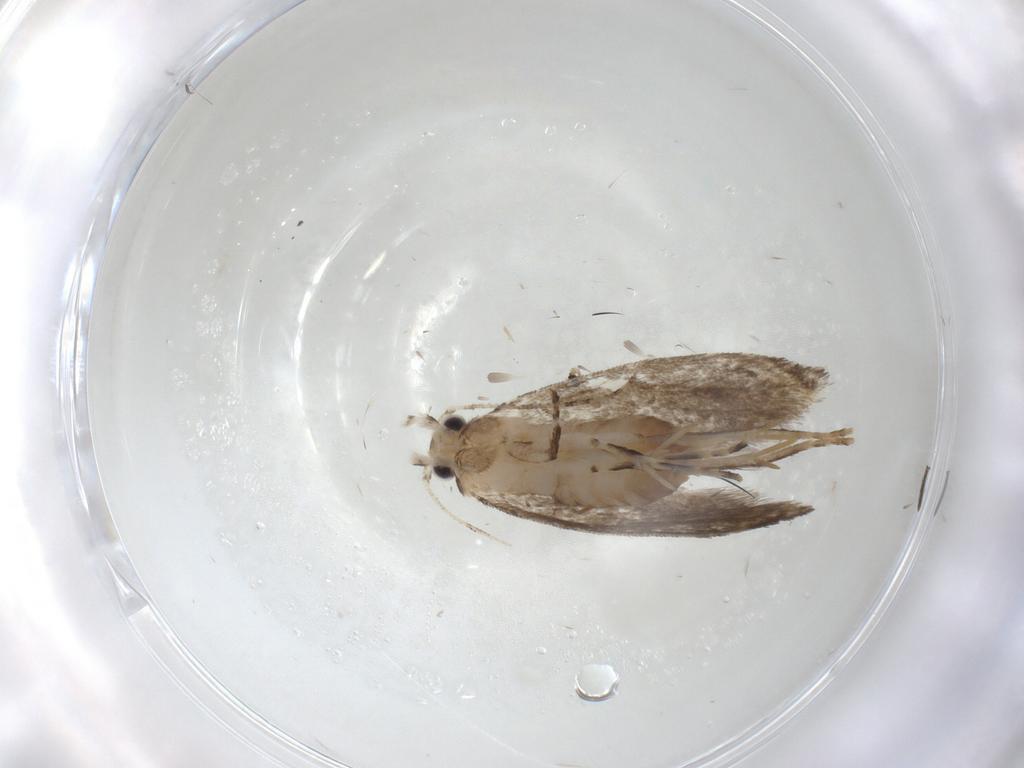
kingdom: Animalia
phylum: Arthropoda
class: Insecta
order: Lepidoptera
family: Tineidae
